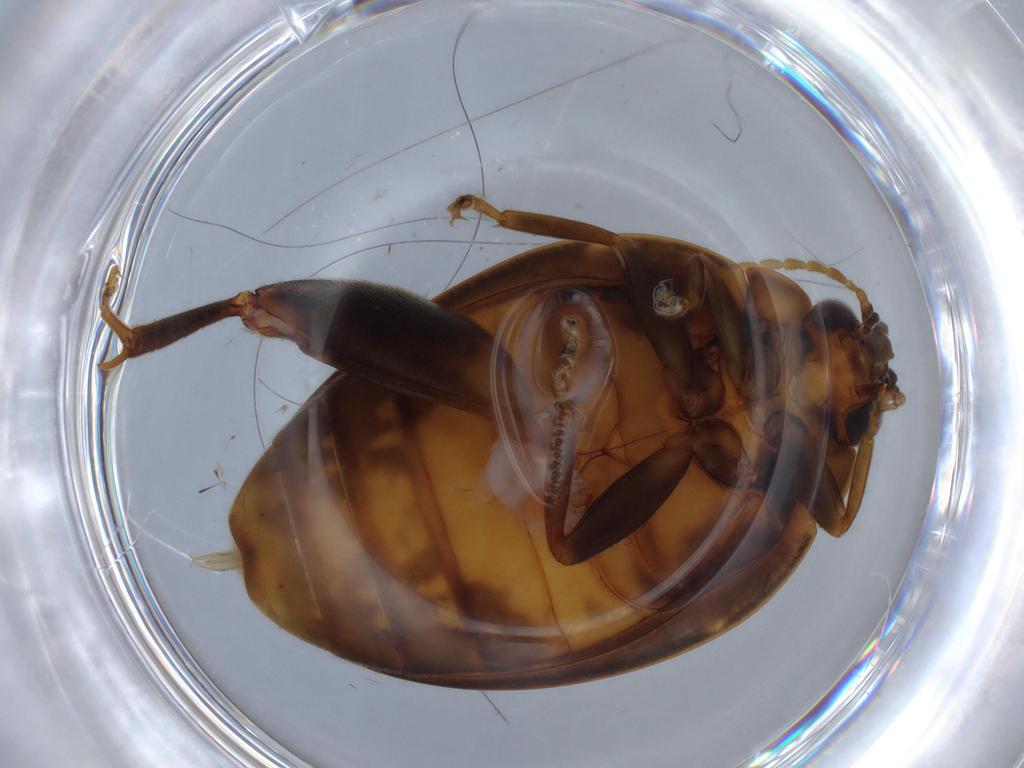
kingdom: Animalia
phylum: Arthropoda
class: Insecta
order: Coleoptera
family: Scirtidae
